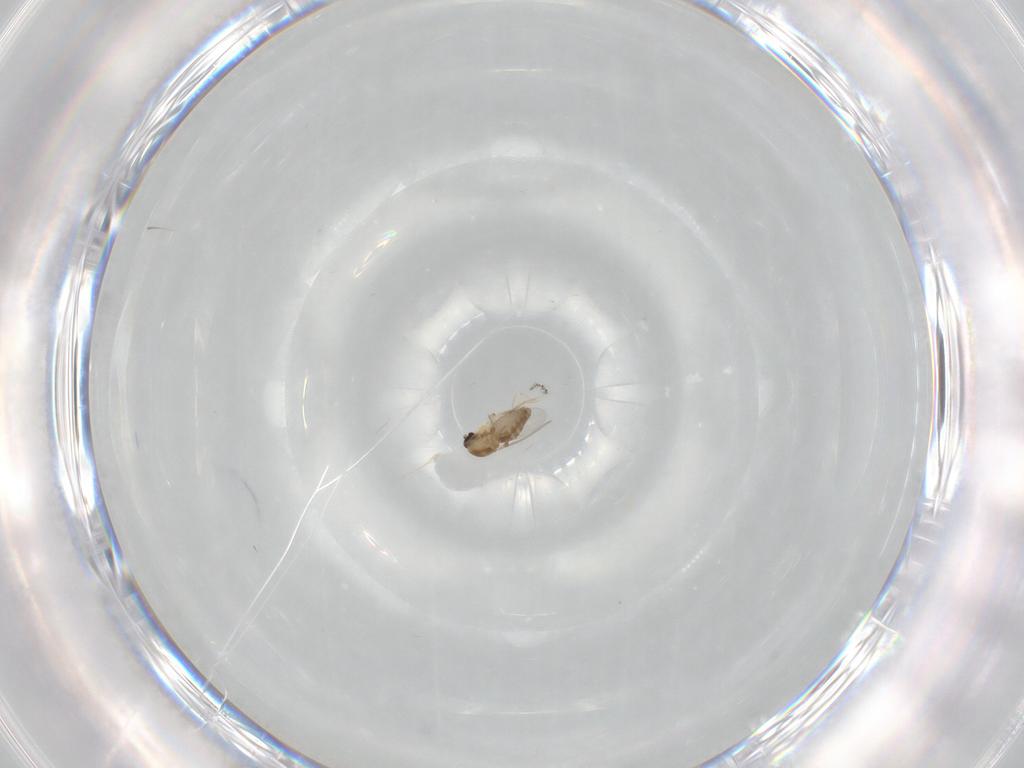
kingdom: Animalia
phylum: Arthropoda
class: Insecta
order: Diptera
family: Ceratopogonidae
